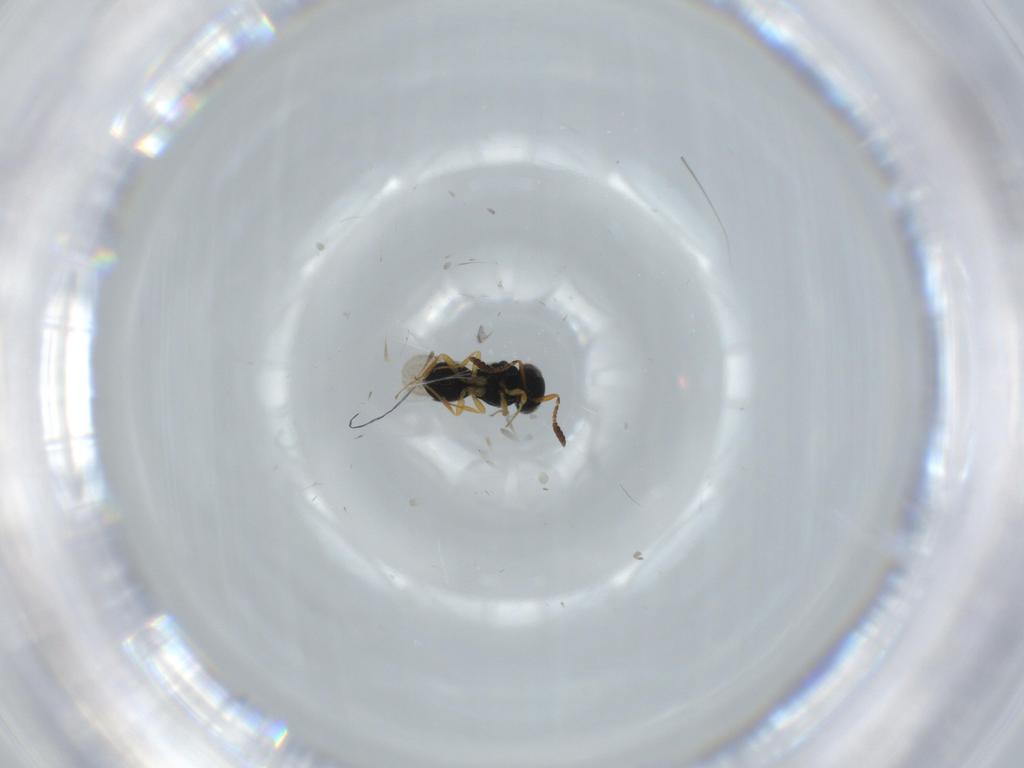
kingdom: Animalia
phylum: Arthropoda
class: Insecta
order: Hymenoptera
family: Scelionidae
